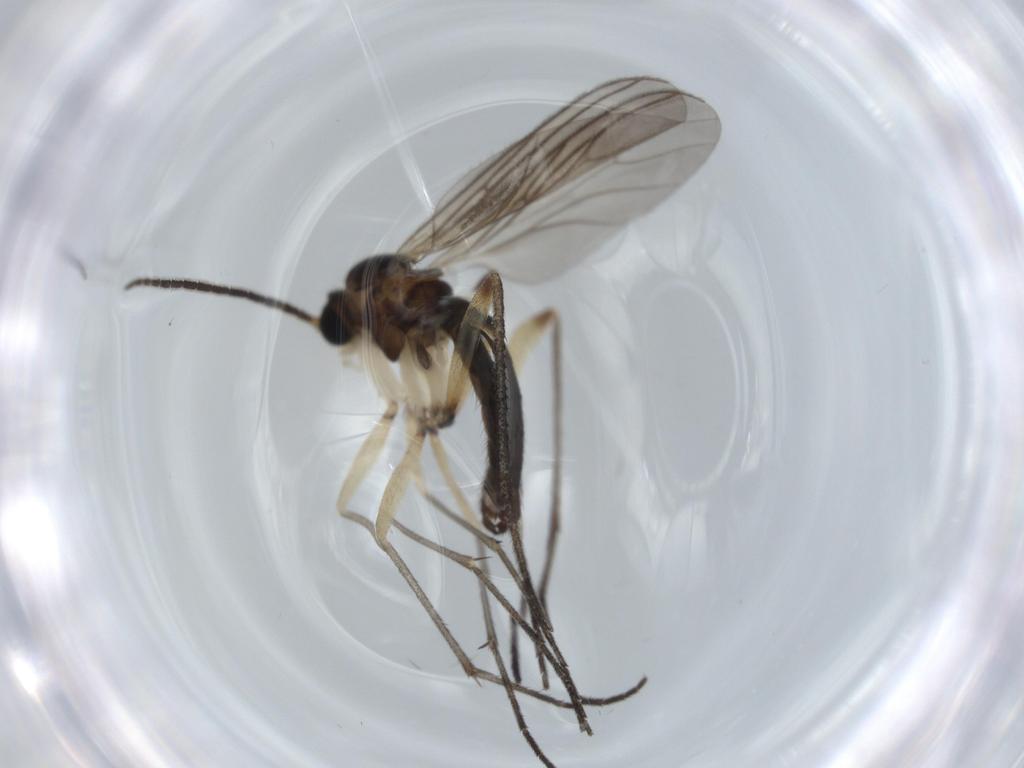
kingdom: Animalia
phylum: Arthropoda
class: Insecta
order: Diptera
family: Sciaridae
